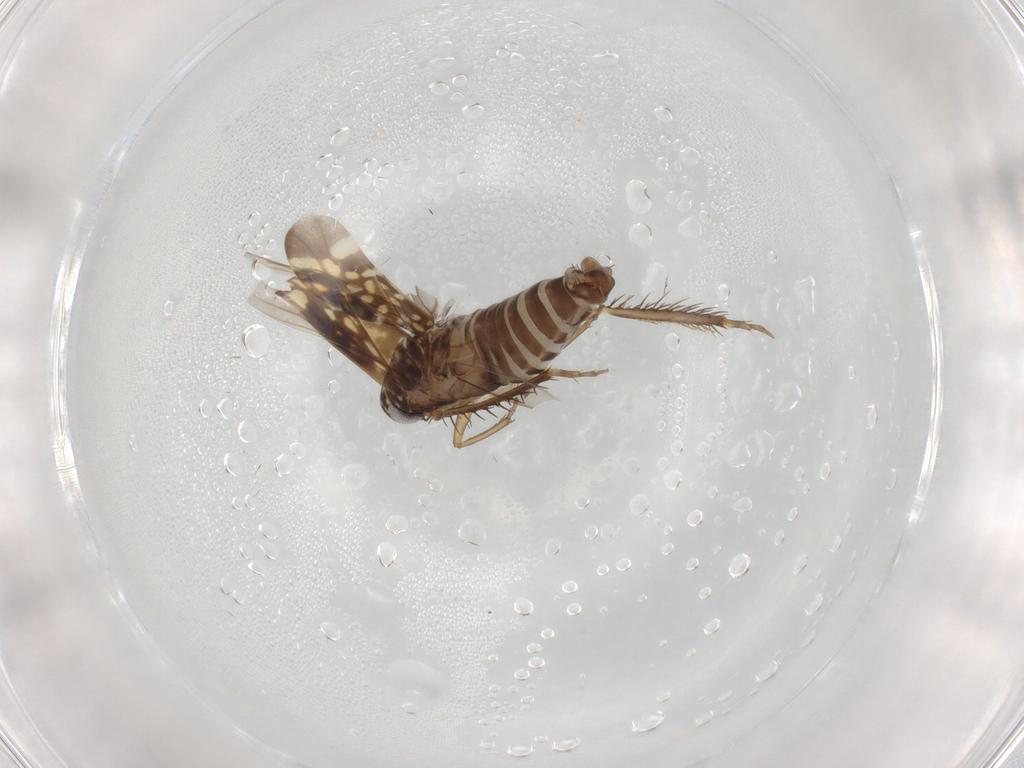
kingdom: Animalia
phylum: Arthropoda
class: Insecta
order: Hemiptera
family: Cicadellidae
